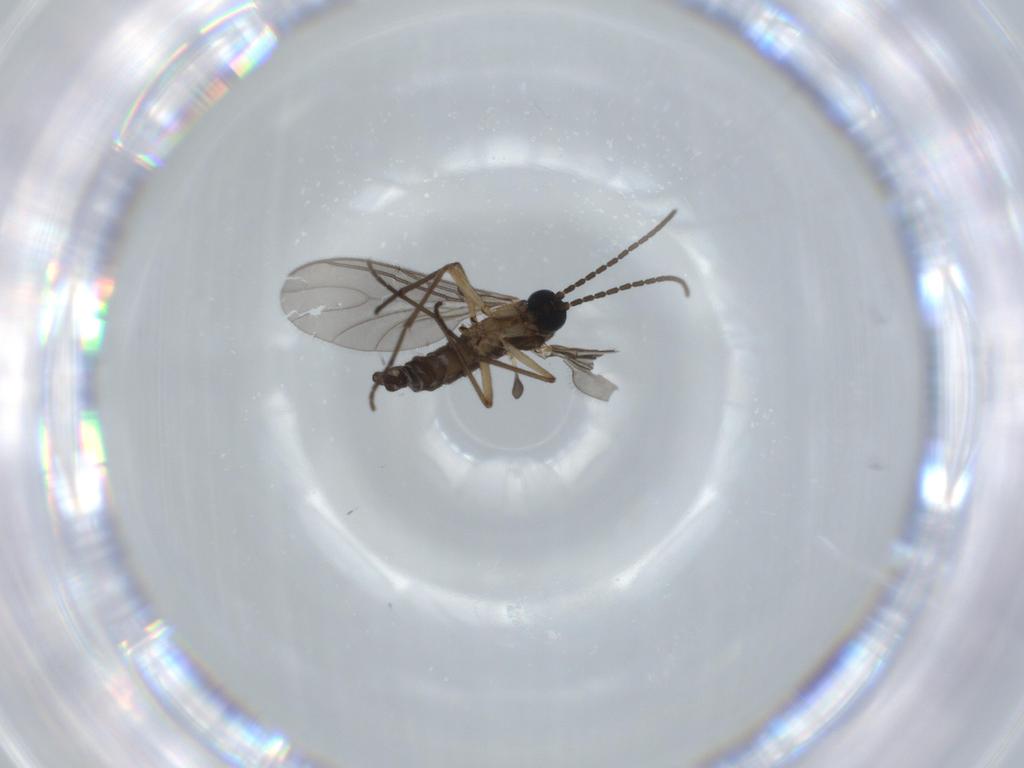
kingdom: Animalia
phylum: Arthropoda
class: Insecta
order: Diptera
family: Sciaridae
